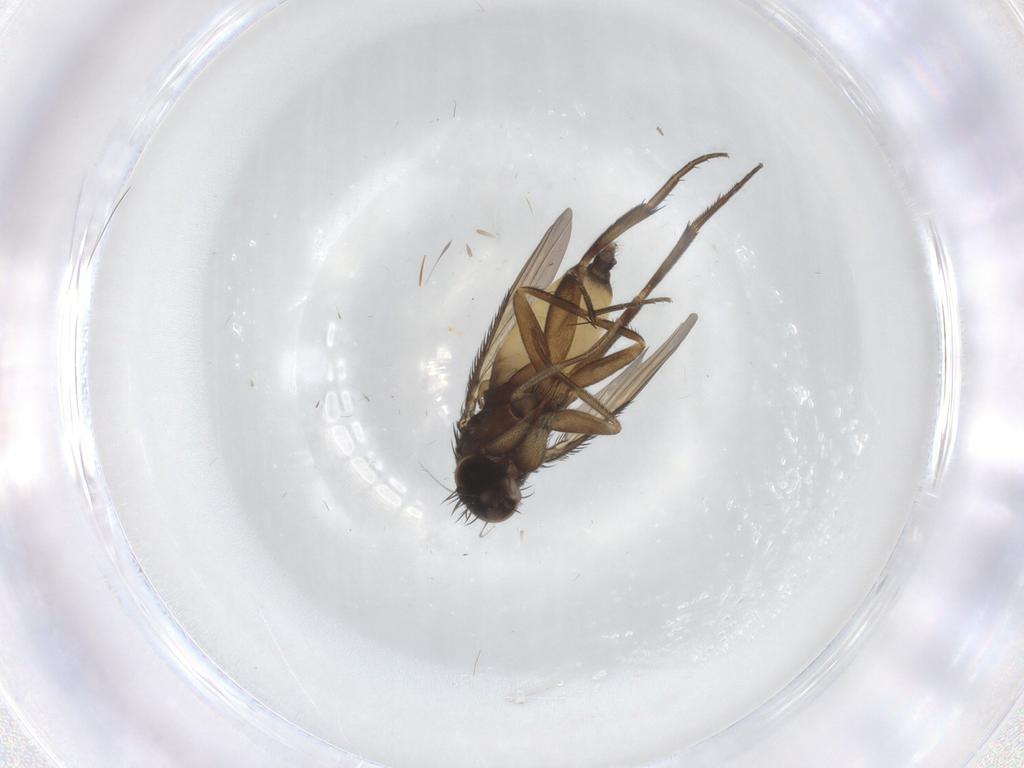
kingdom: Animalia
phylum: Arthropoda
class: Insecta
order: Diptera
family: Phoridae
